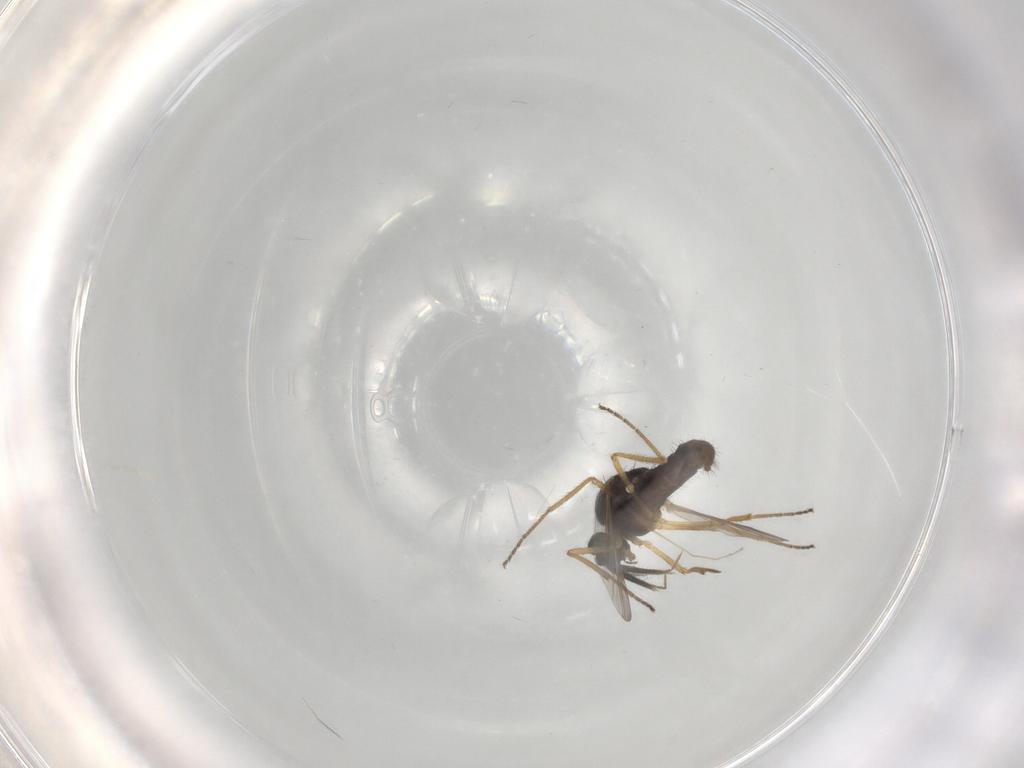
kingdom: Animalia
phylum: Arthropoda
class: Insecta
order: Diptera
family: Ceratopogonidae
